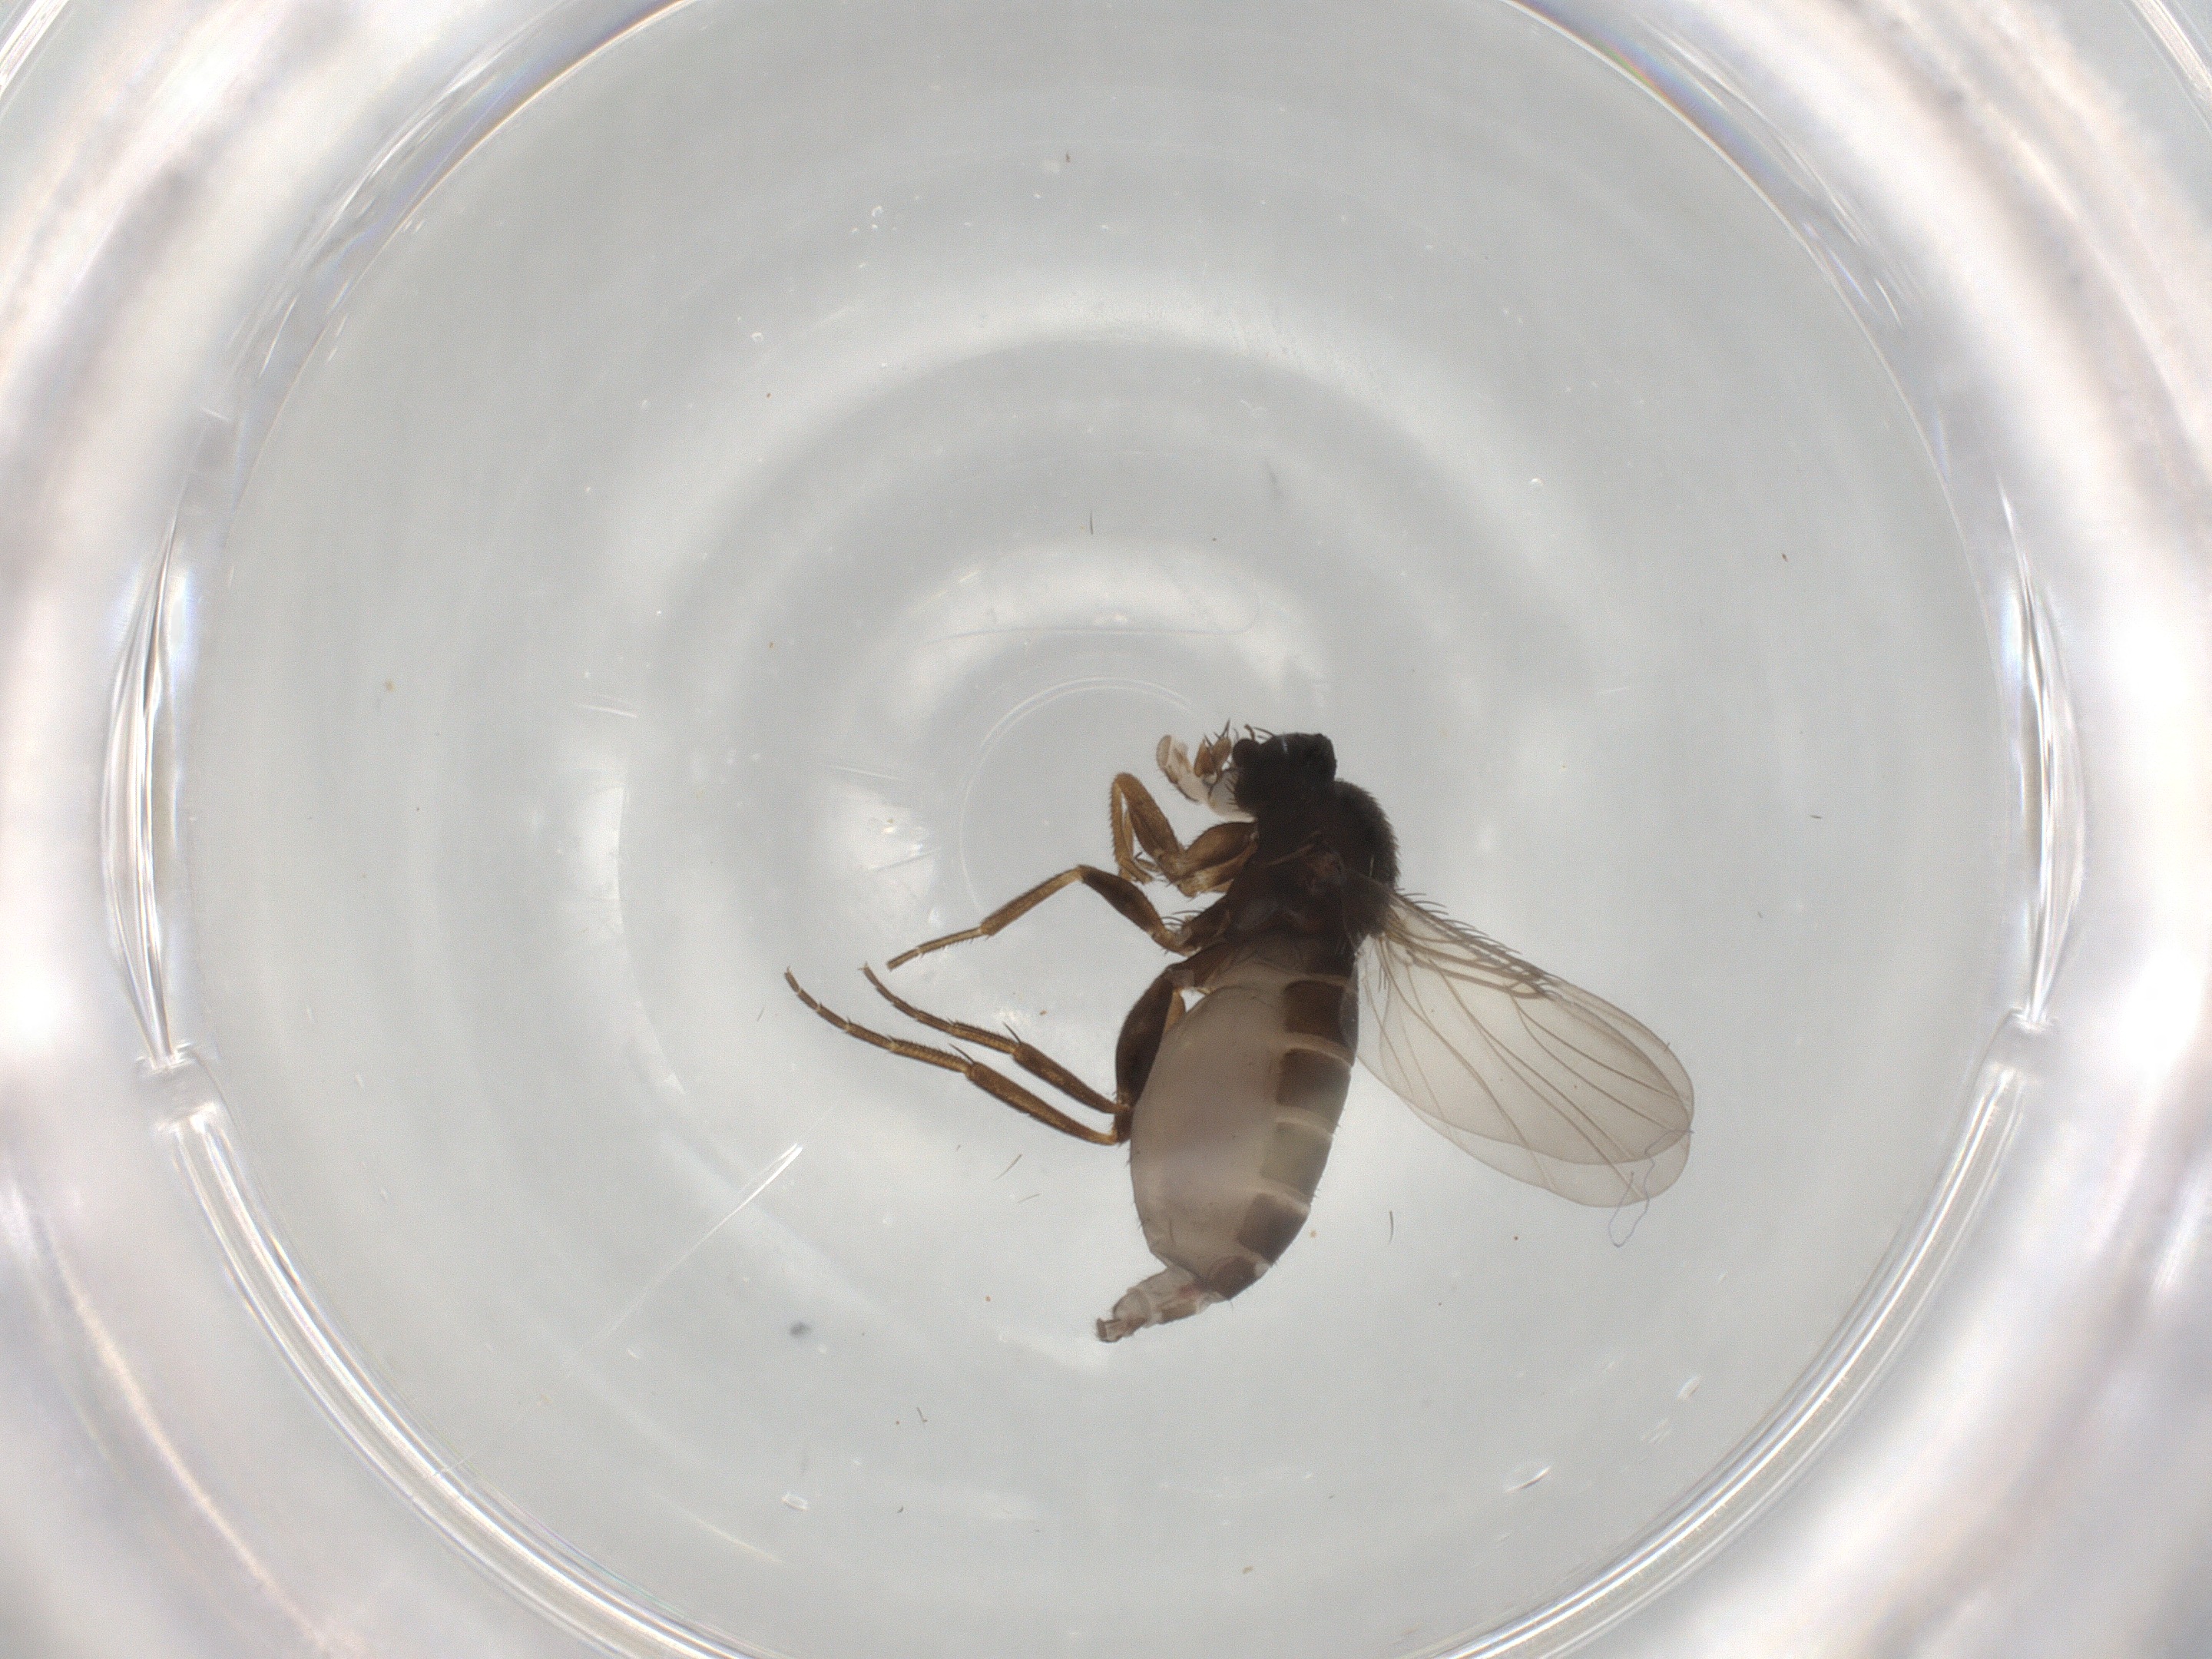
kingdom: Animalia
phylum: Arthropoda
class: Insecta
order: Diptera
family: Phoridae
